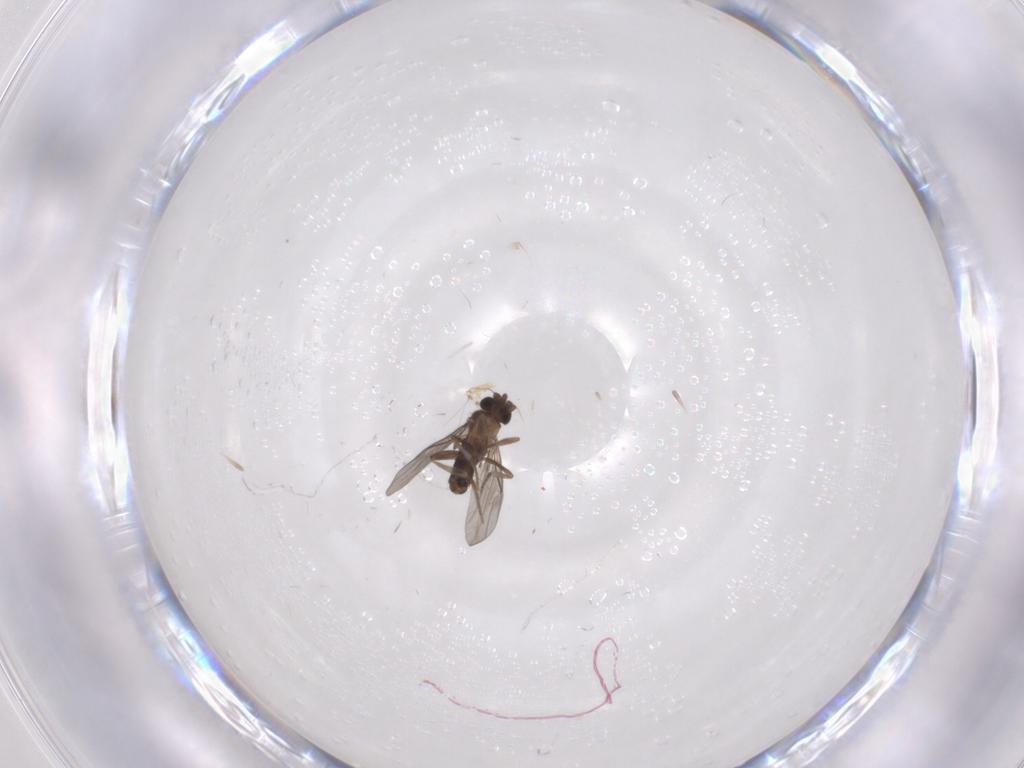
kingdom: Animalia
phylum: Arthropoda
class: Insecta
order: Diptera
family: Psychodidae
